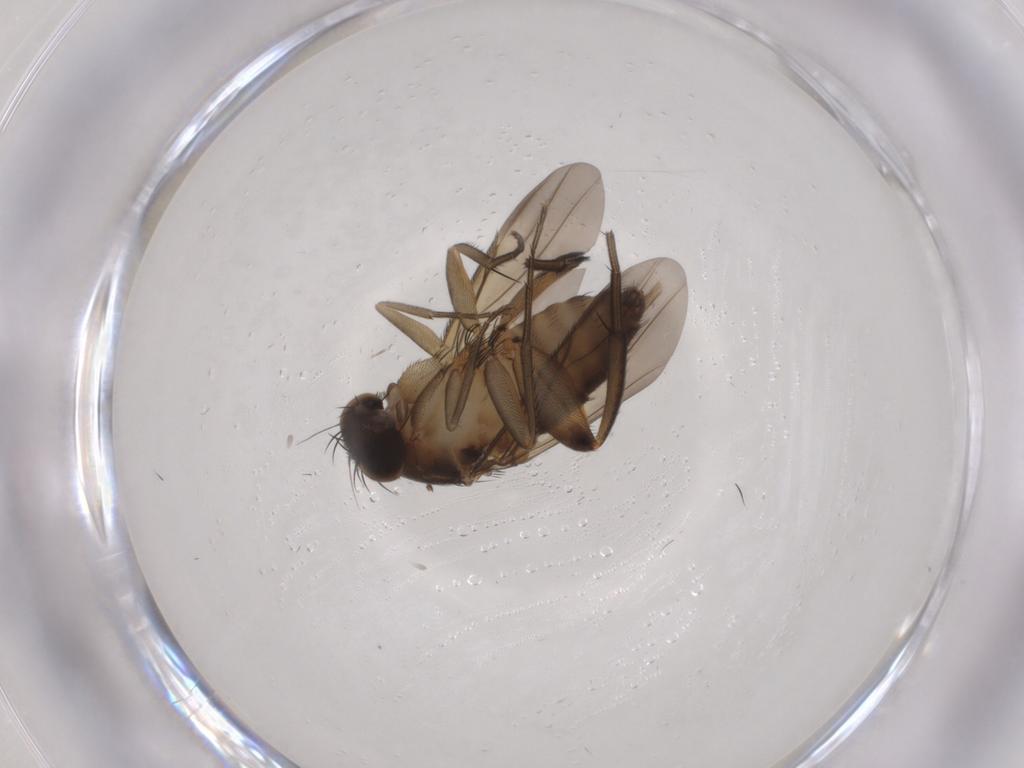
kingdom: Animalia
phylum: Arthropoda
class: Insecta
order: Diptera
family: Phoridae
